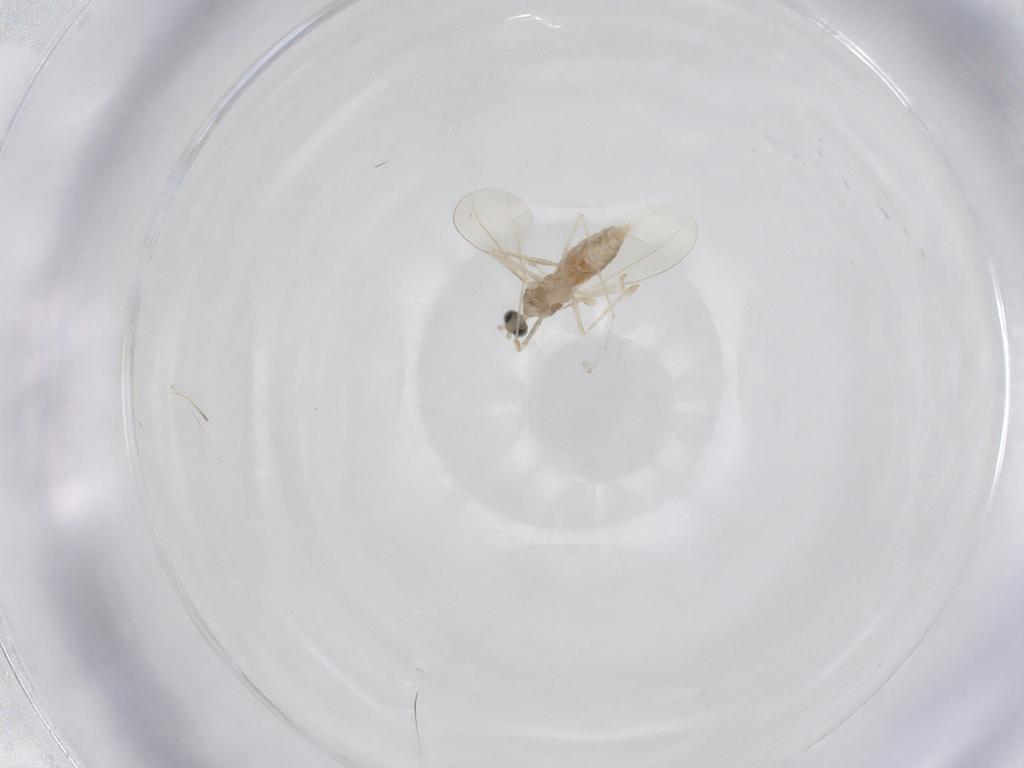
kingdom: Animalia
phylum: Arthropoda
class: Insecta
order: Diptera
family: Cecidomyiidae
